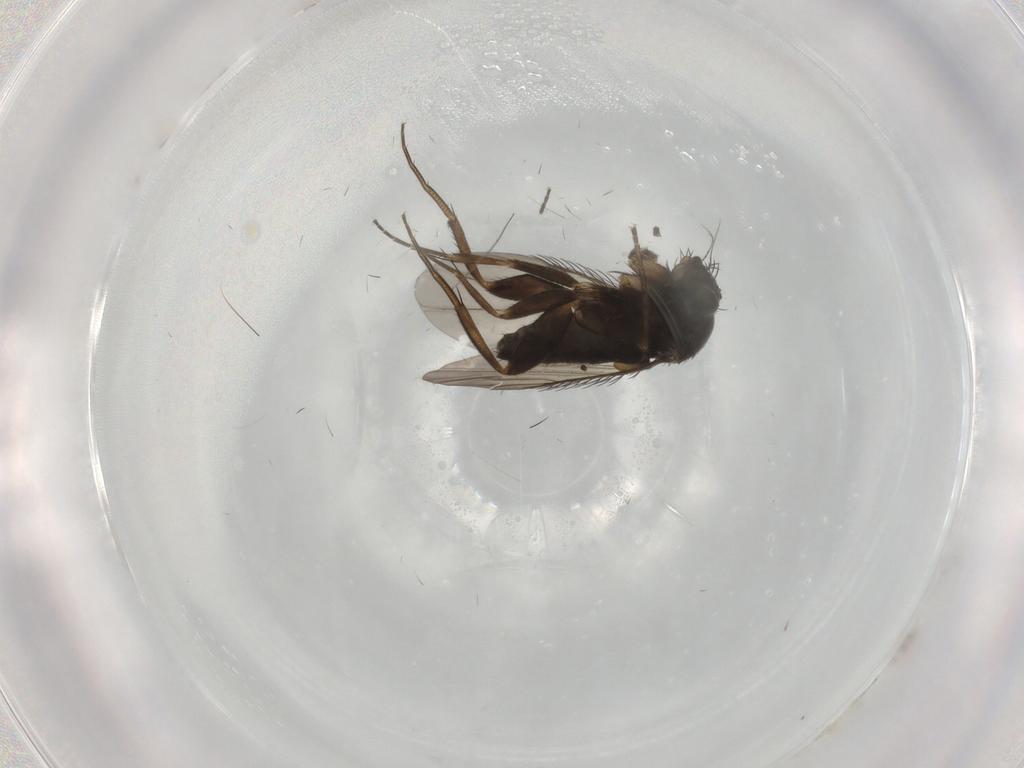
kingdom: Animalia
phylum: Arthropoda
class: Insecta
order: Diptera
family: Phoridae
